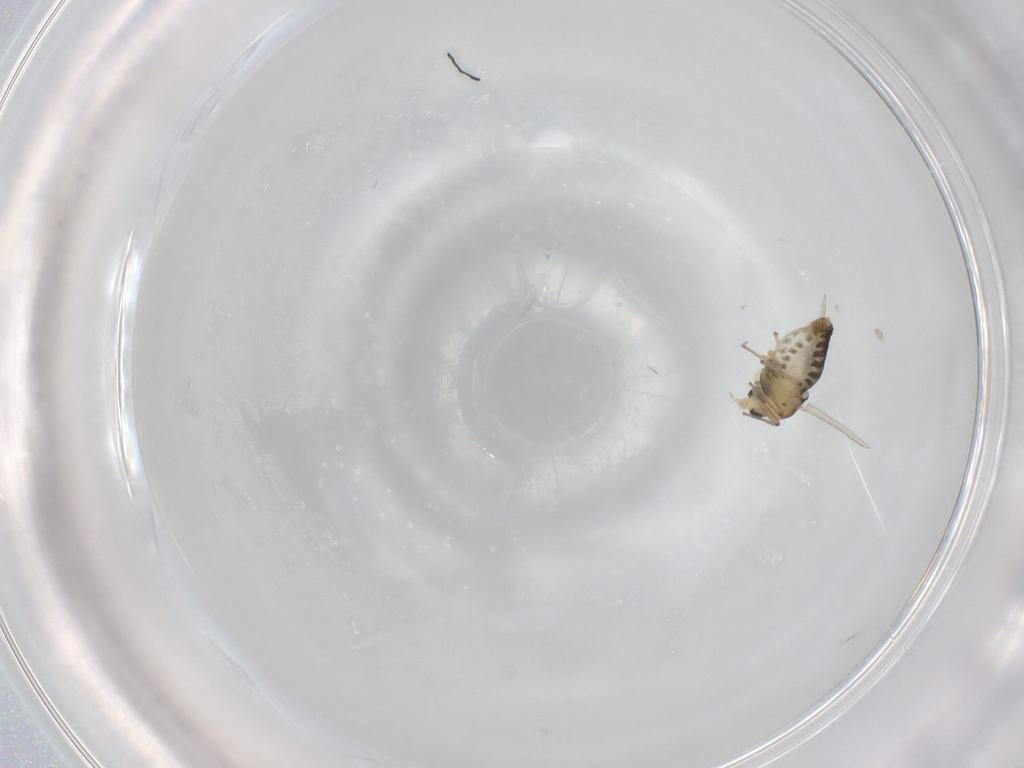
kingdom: Animalia
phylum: Arthropoda
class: Insecta
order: Diptera
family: Chironomidae
